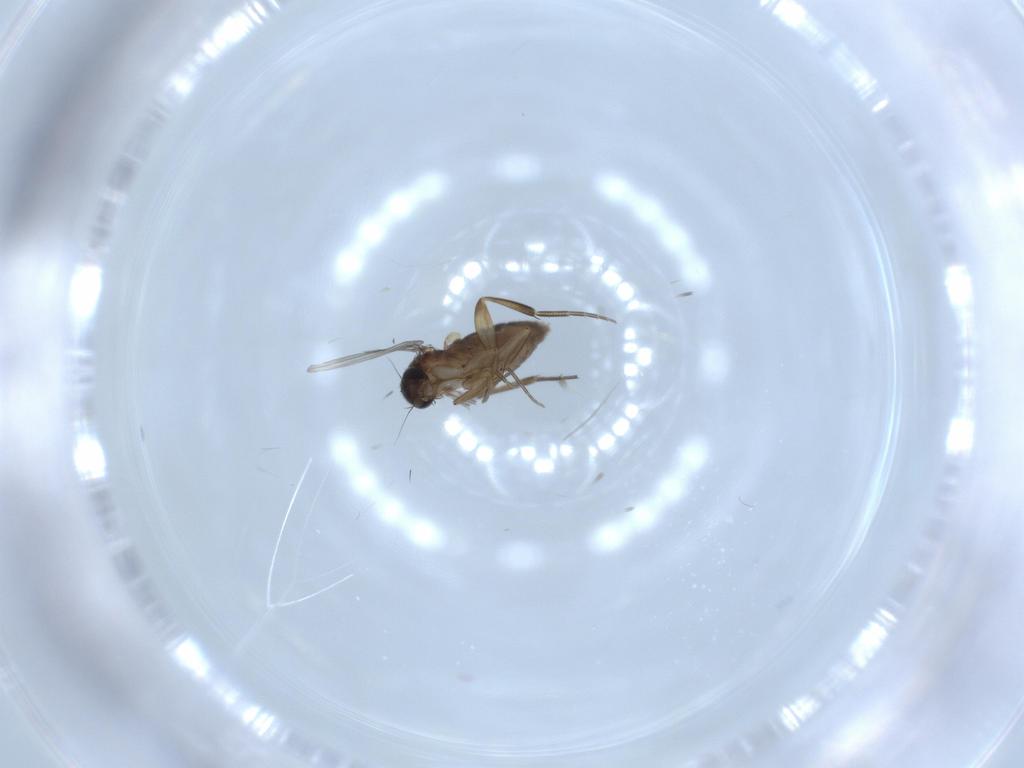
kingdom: Animalia
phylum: Arthropoda
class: Insecta
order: Diptera
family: Phoridae
